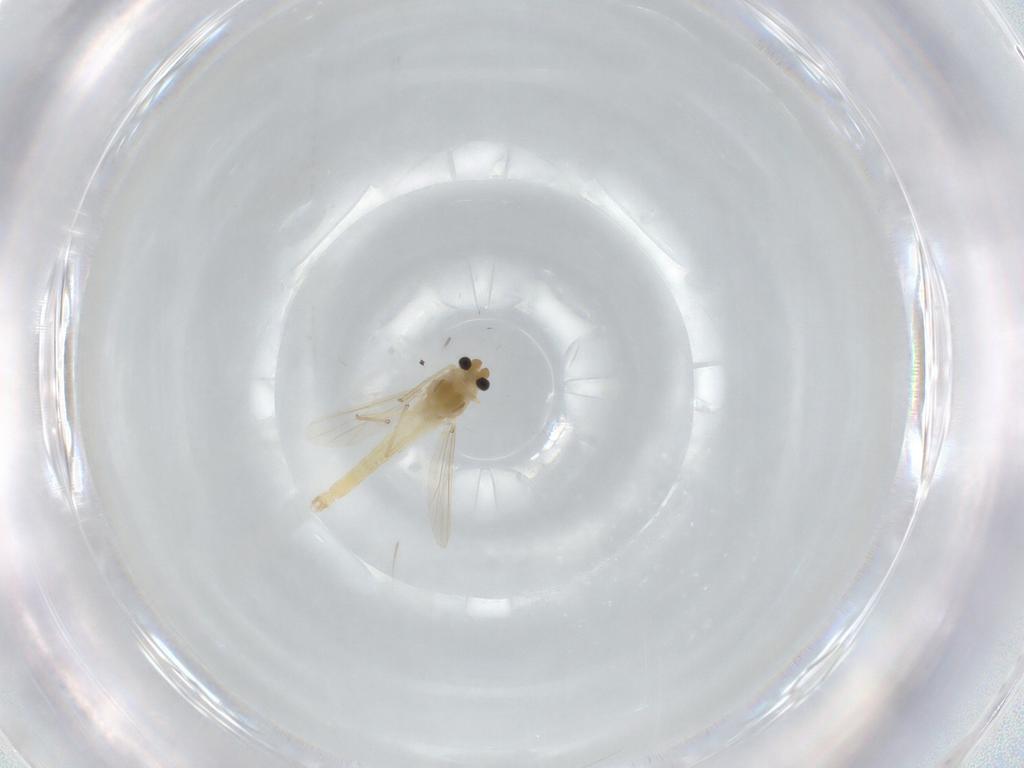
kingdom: Animalia
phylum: Arthropoda
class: Insecta
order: Diptera
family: Chironomidae
